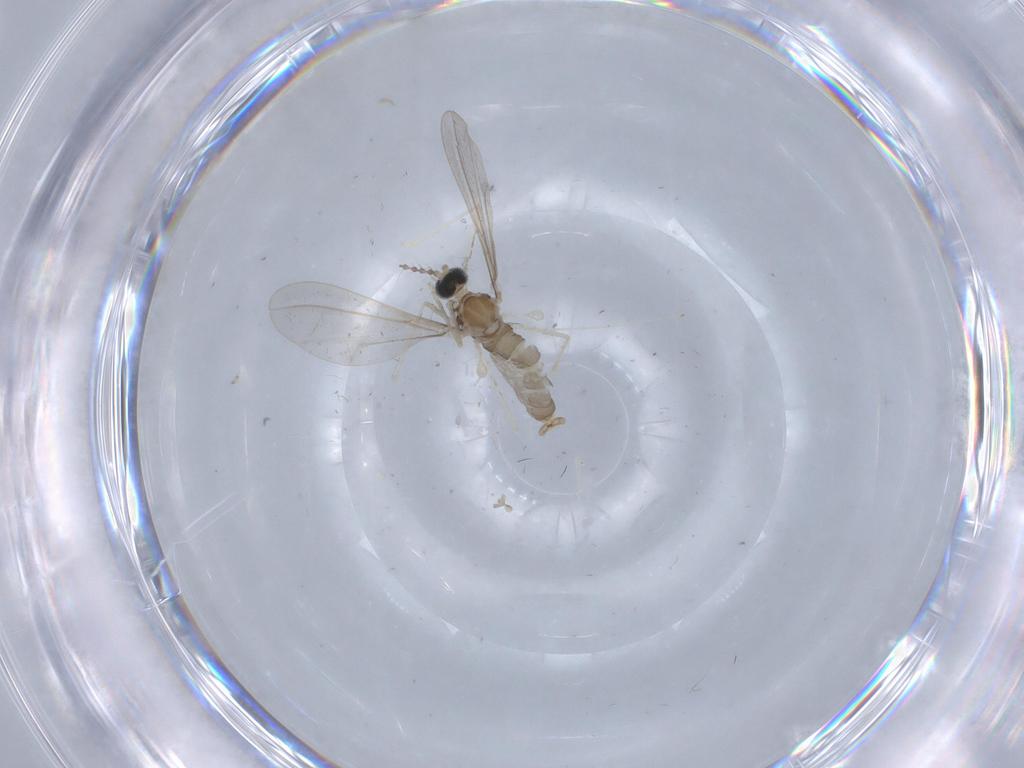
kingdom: Animalia
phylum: Arthropoda
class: Insecta
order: Diptera
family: Cecidomyiidae
